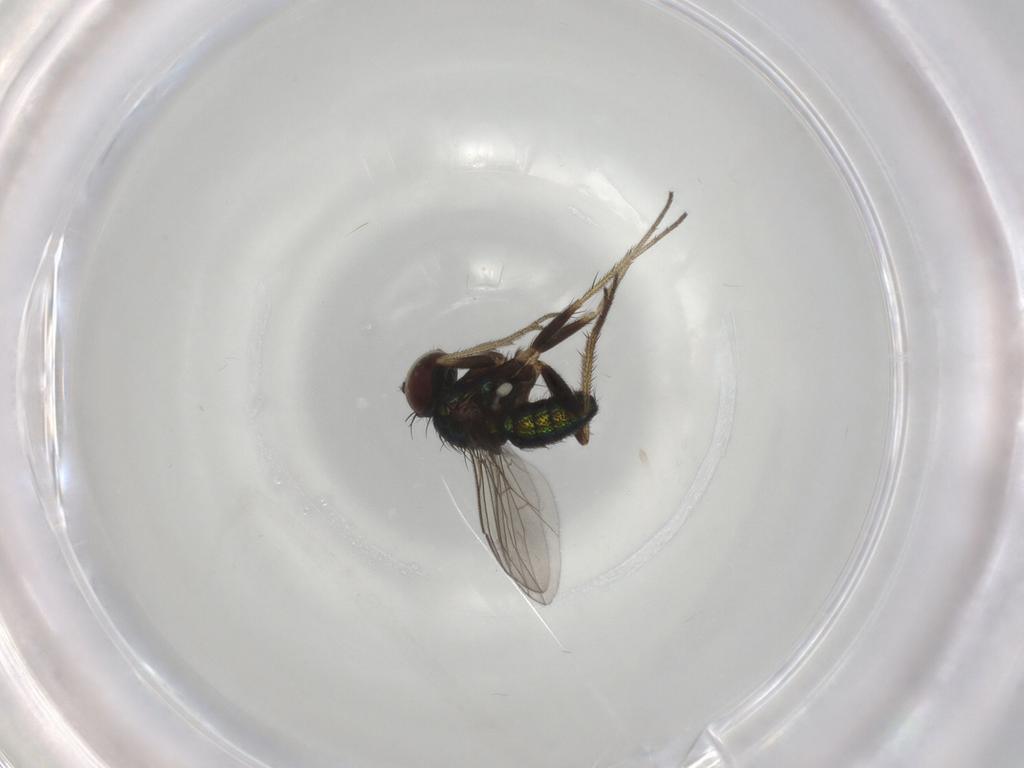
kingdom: Animalia
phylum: Arthropoda
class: Insecta
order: Diptera
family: Dolichopodidae
